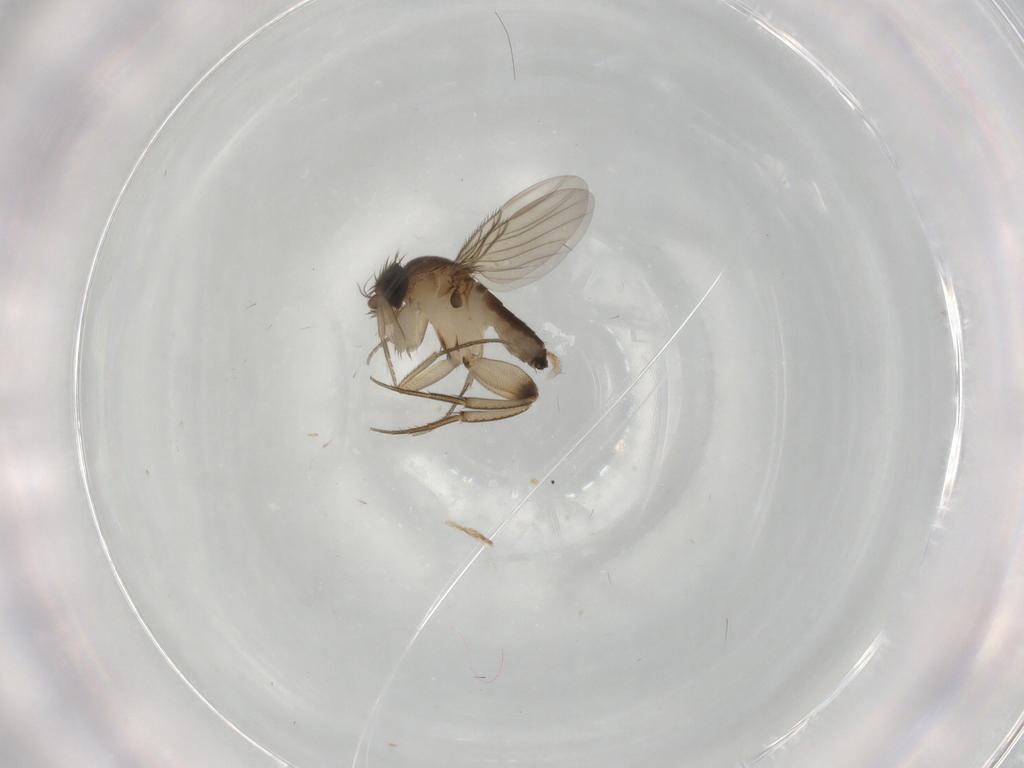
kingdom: Animalia
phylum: Arthropoda
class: Insecta
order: Diptera
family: Phoridae
